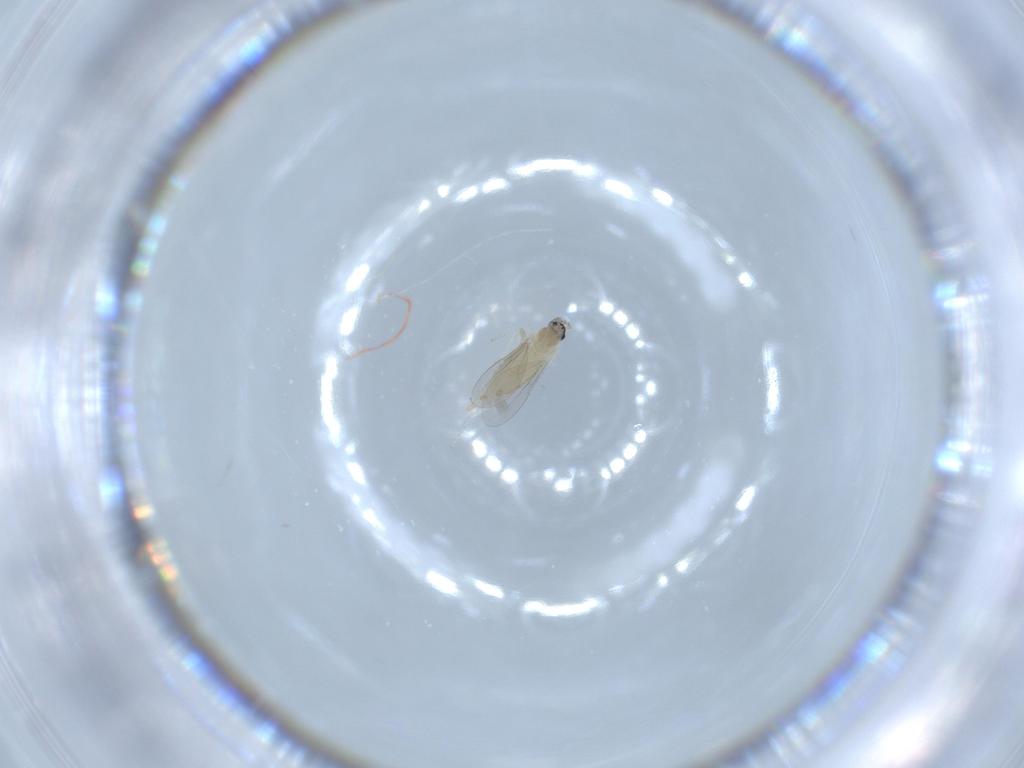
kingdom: Animalia
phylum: Arthropoda
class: Insecta
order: Diptera
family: Cecidomyiidae
